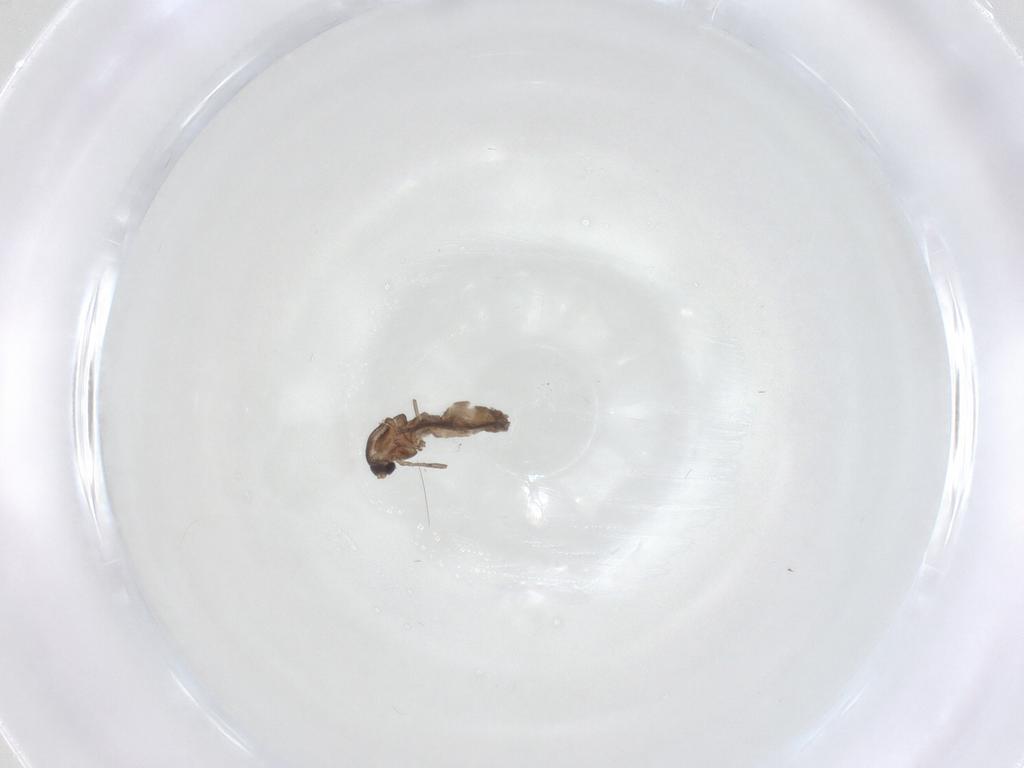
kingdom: Animalia
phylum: Arthropoda
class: Insecta
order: Diptera
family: Chironomidae
